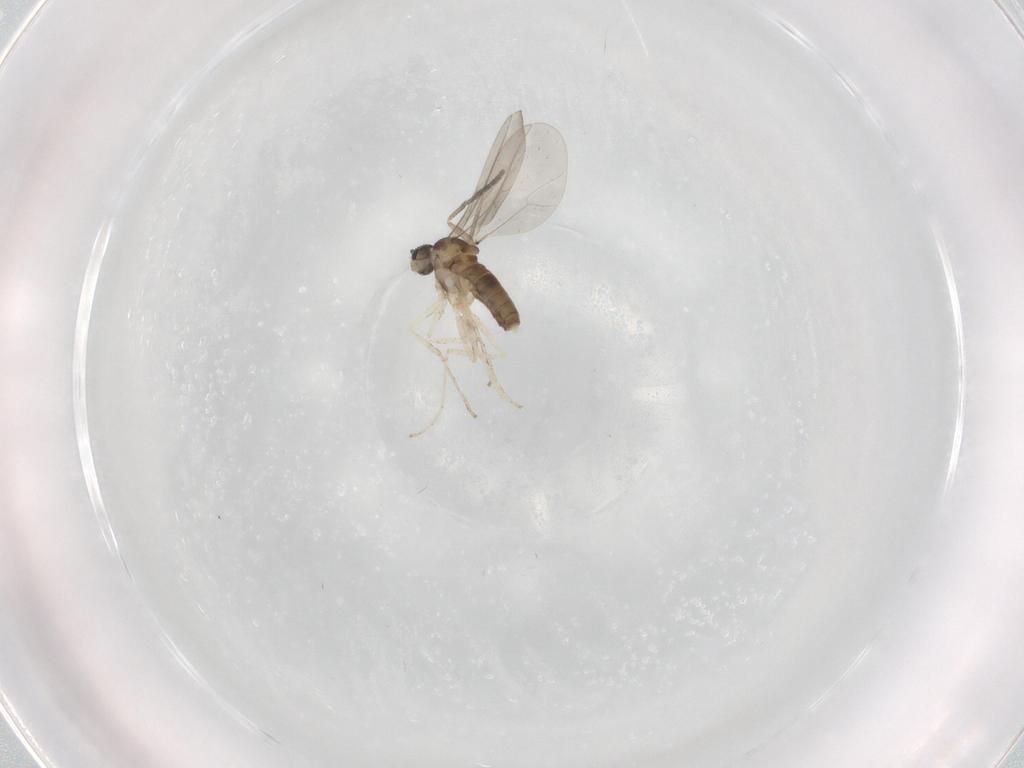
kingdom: Animalia
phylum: Arthropoda
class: Insecta
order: Diptera
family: Cecidomyiidae
